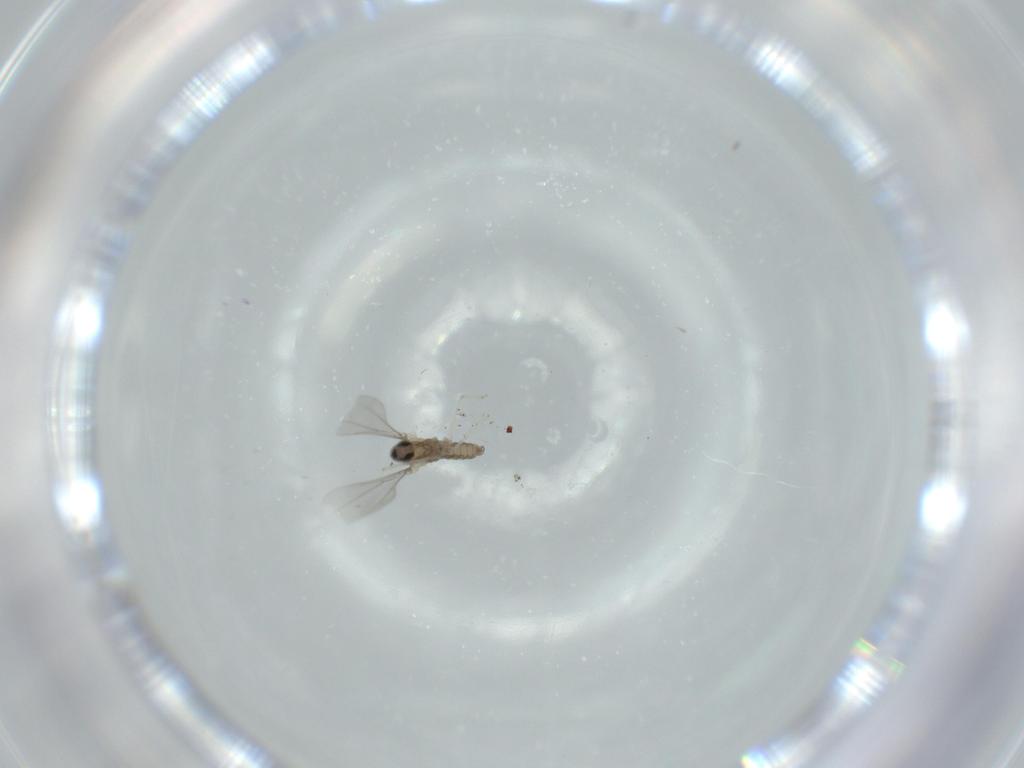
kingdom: Animalia
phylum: Arthropoda
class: Insecta
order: Diptera
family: Cecidomyiidae
